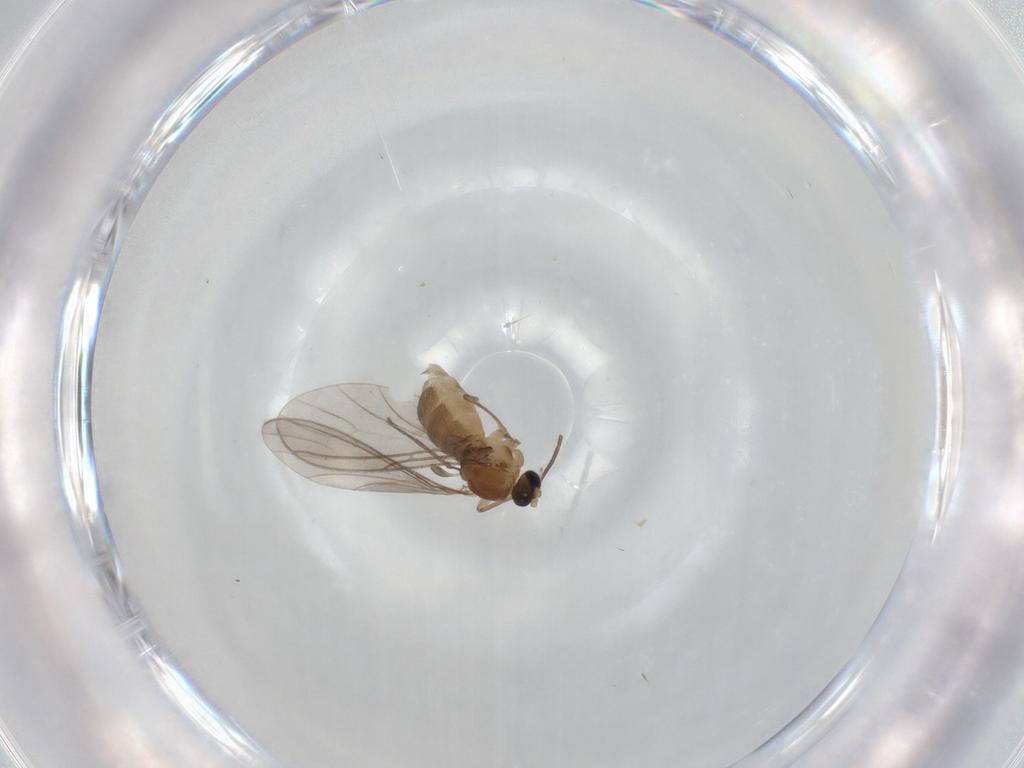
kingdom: Animalia
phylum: Arthropoda
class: Insecta
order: Diptera
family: Sciaridae
